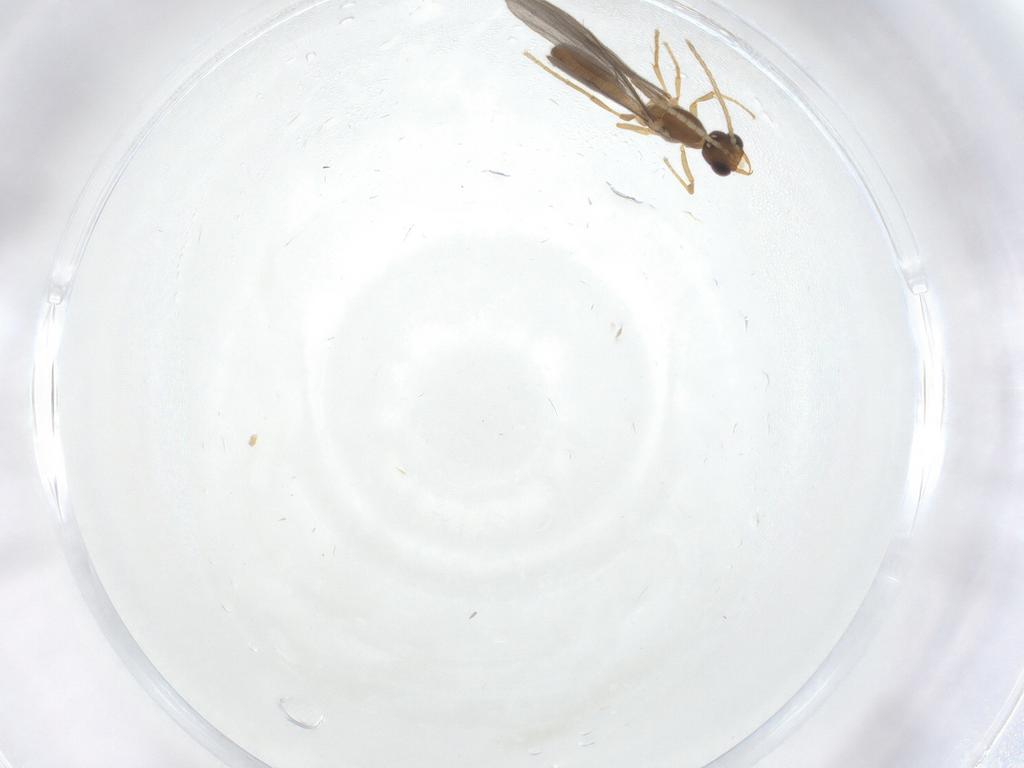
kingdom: Animalia
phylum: Arthropoda
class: Insecta
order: Hymenoptera
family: Formicidae
